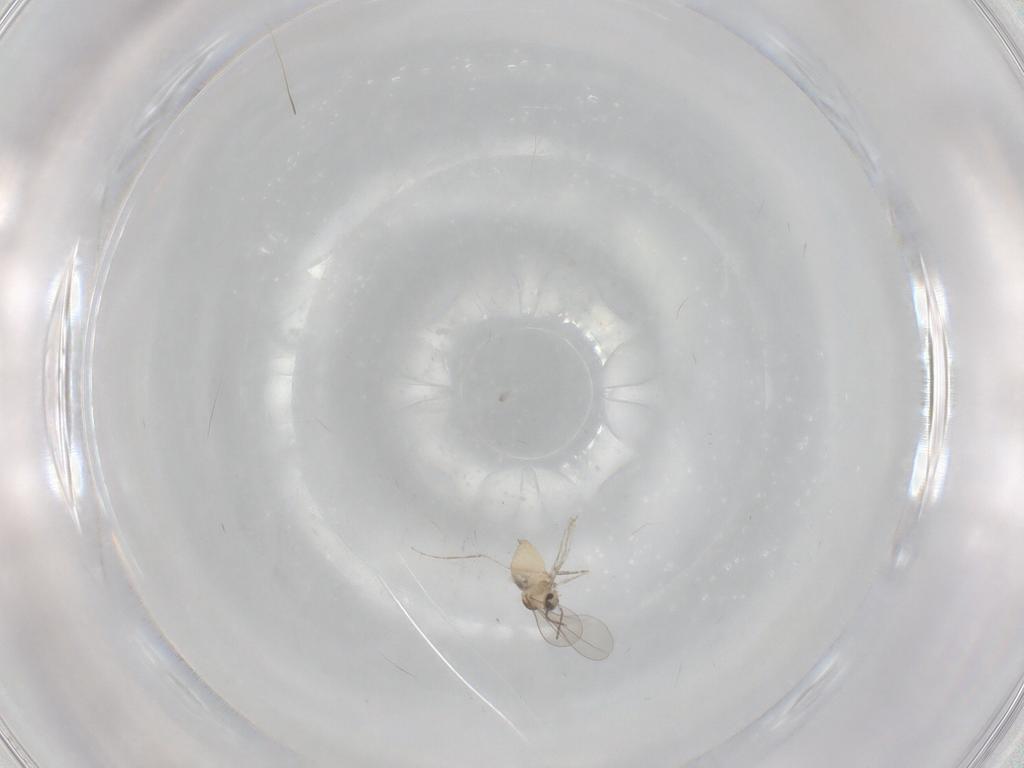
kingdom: Animalia
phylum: Arthropoda
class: Insecta
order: Diptera
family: Cecidomyiidae
